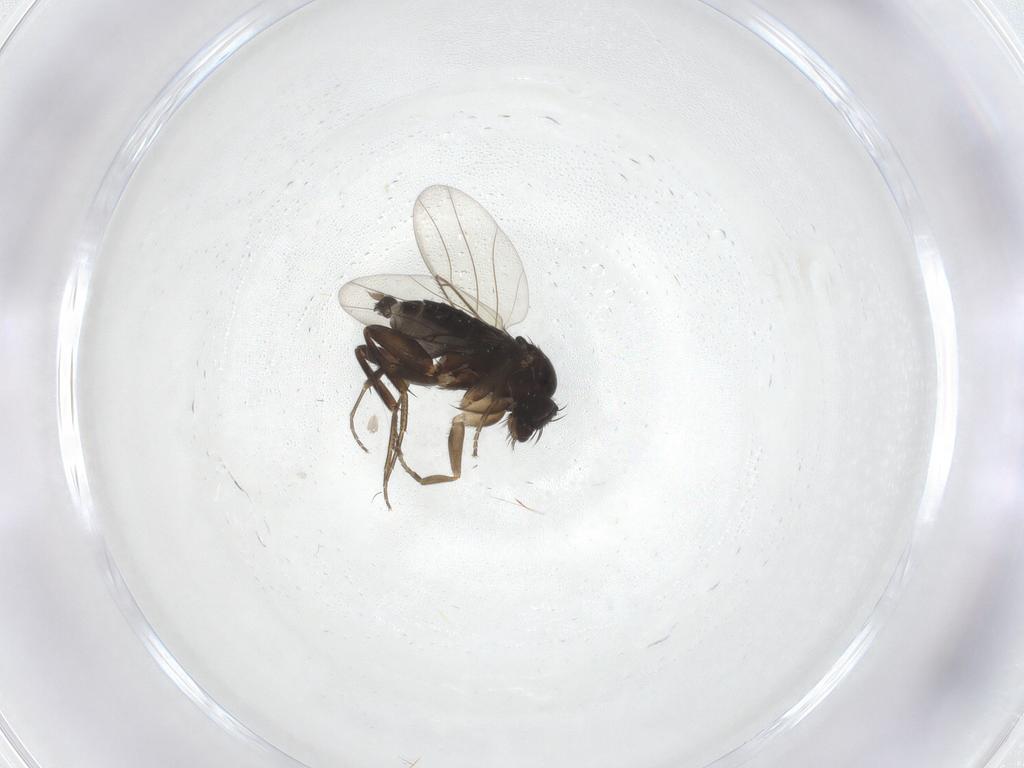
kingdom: Animalia
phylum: Arthropoda
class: Insecta
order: Diptera
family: Phoridae
